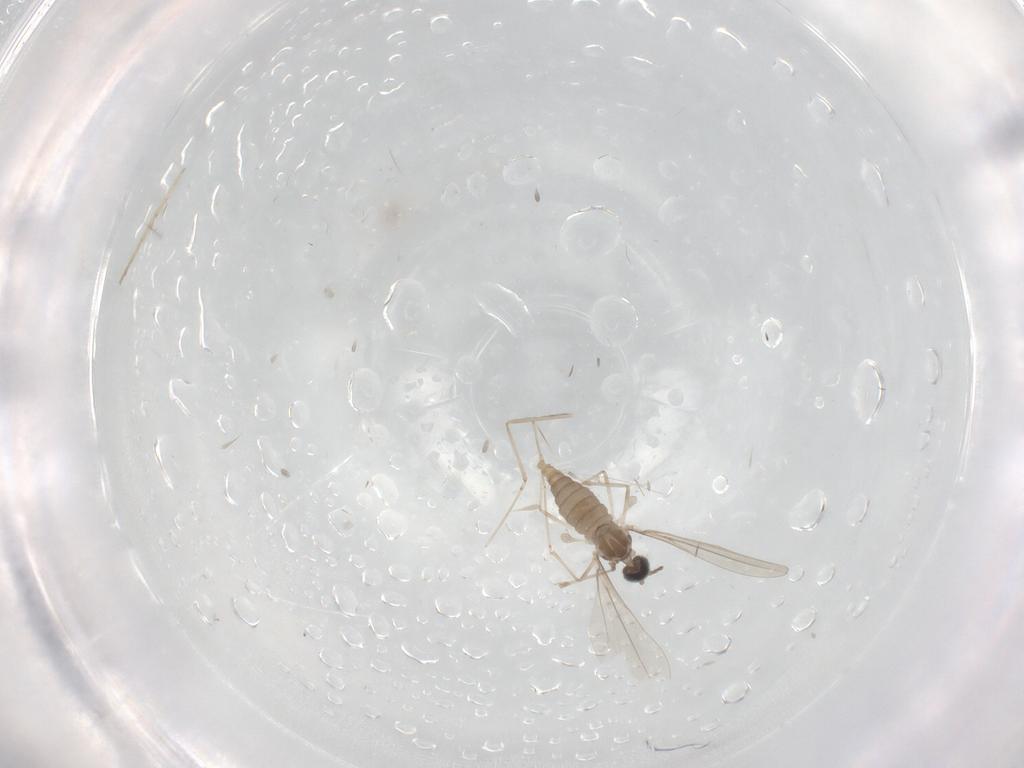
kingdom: Animalia
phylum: Arthropoda
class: Insecta
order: Diptera
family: Cecidomyiidae
